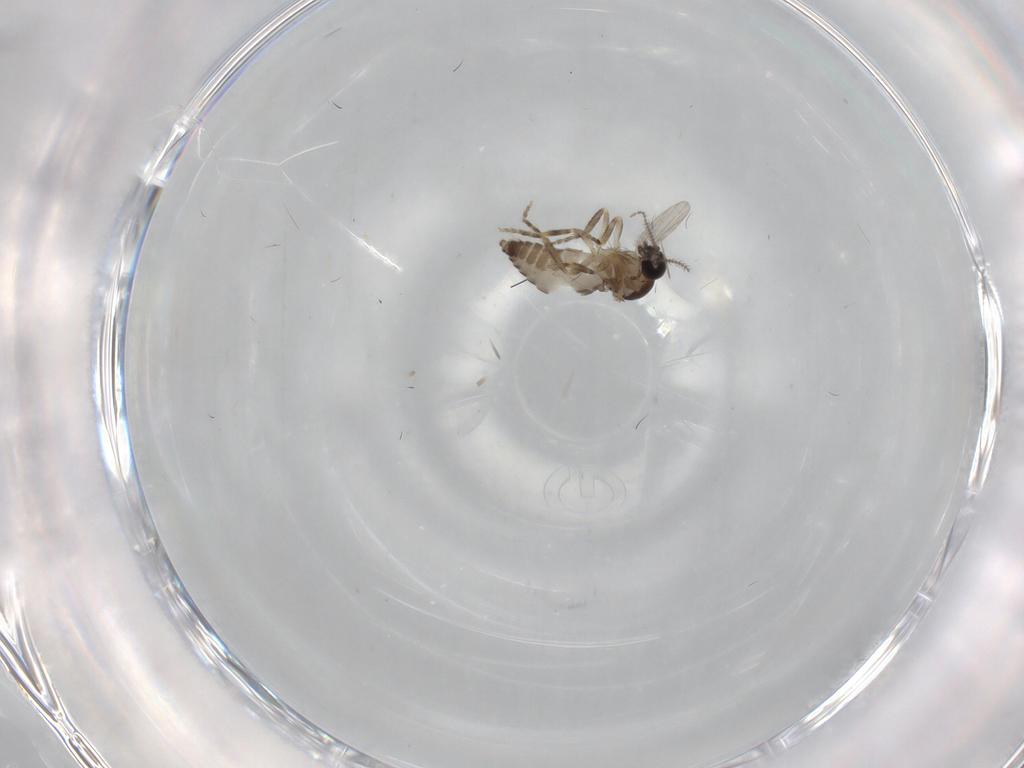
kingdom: Animalia
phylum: Arthropoda
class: Insecta
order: Diptera
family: Ceratopogonidae
